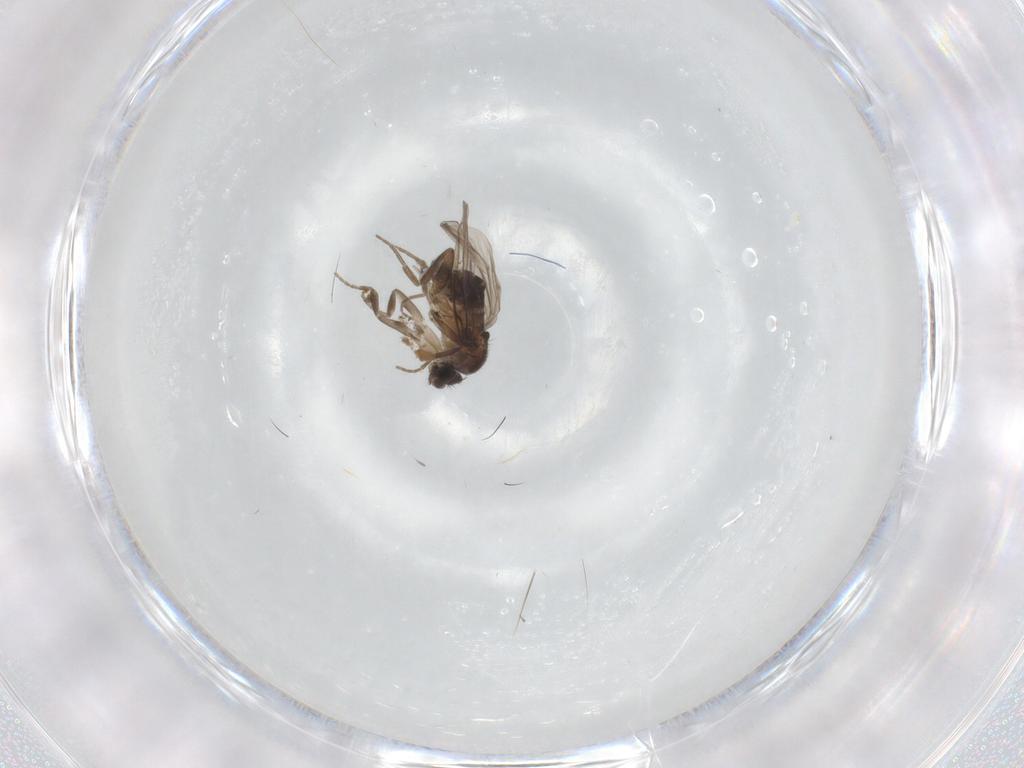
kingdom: Animalia
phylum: Arthropoda
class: Insecta
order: Diptera
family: Ceratopogonidae
